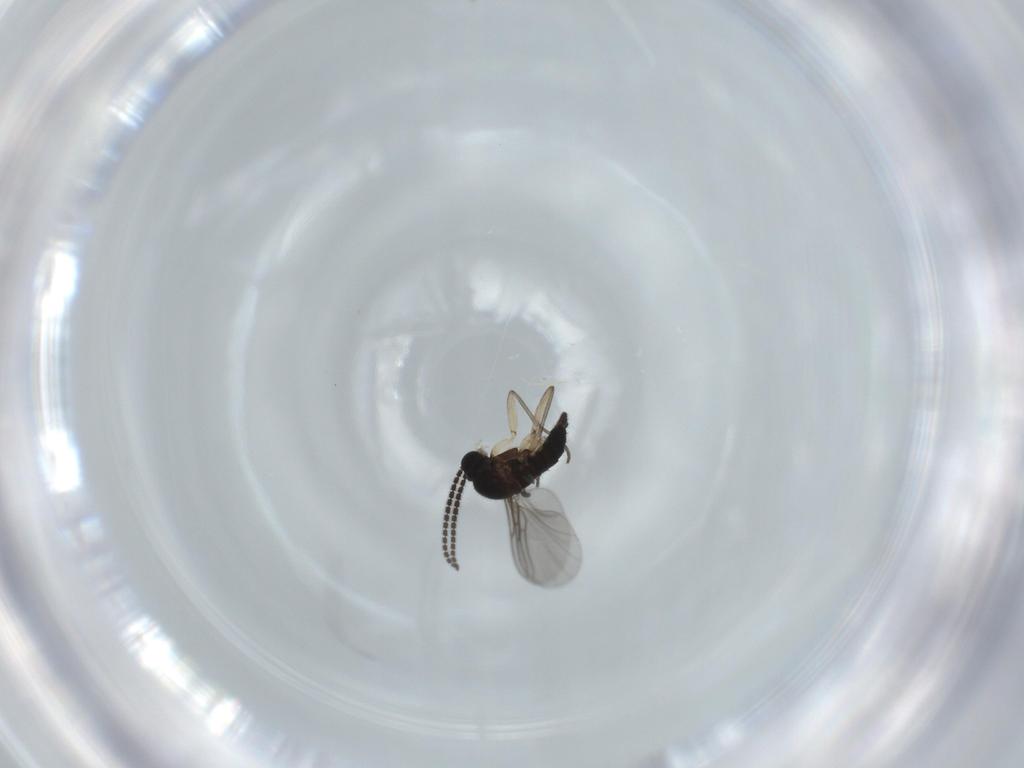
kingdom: Animalia
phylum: Arthropoda
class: Insecta
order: Diptera
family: Sciaridae
